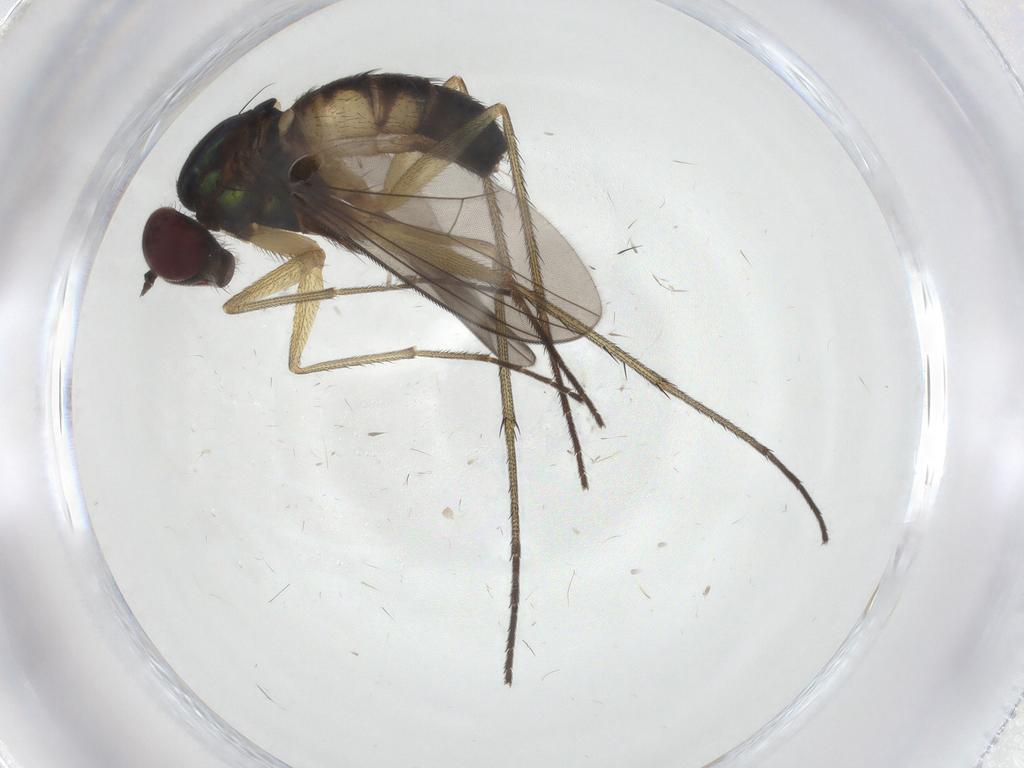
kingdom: Animalia
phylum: Arthropoda
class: Insecta
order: Diptera
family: Dolichopodidae
